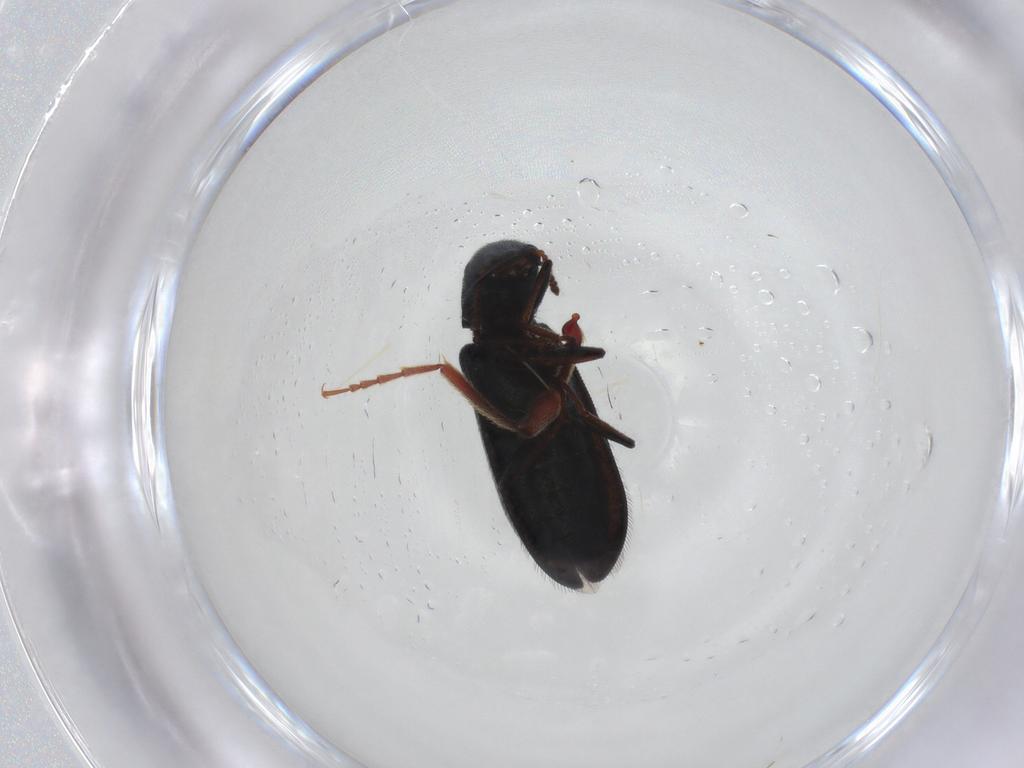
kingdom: Animalia
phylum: Arthropoda
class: Insecta
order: Coleoptera
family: Melyridae
